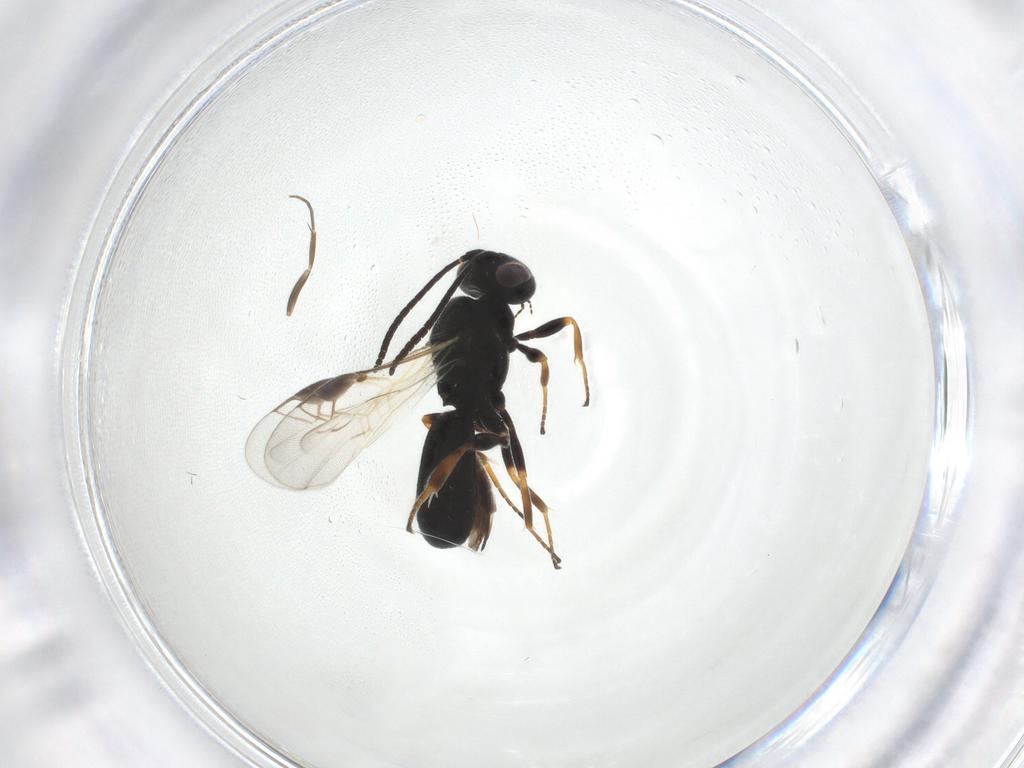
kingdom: Animalia
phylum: Arthropoda
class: Insecta
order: Hymenoptera
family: Braconidae
